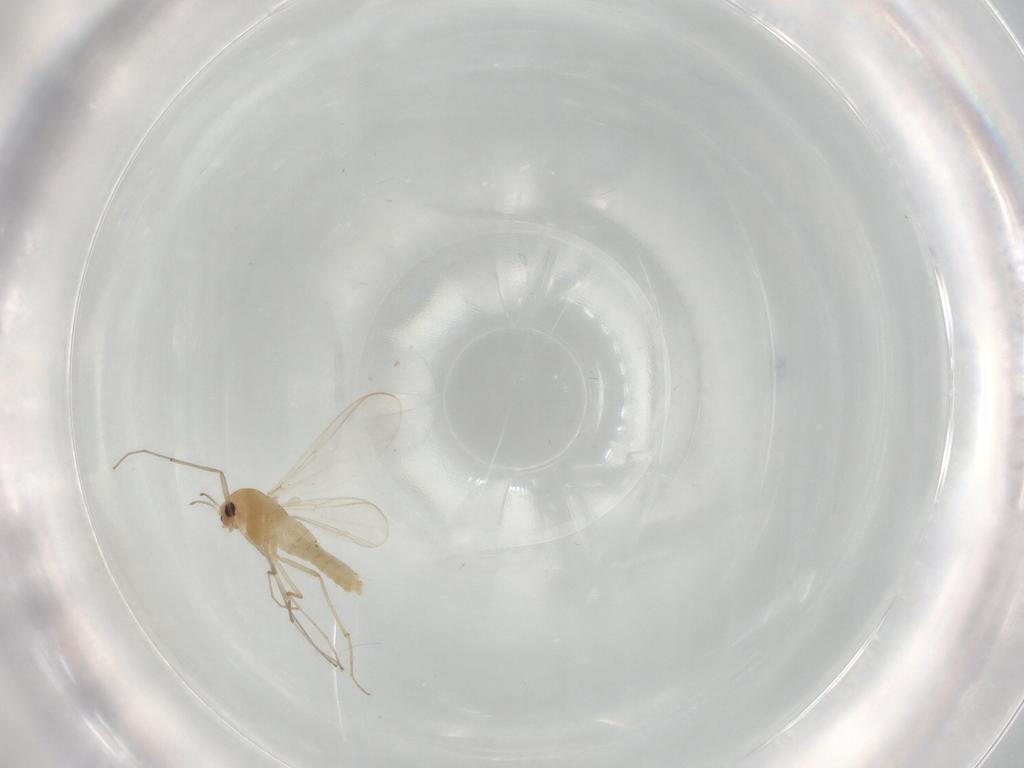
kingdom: Animalia
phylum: Arthropoda
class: Insecta
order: Diptera
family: Chironomidae
